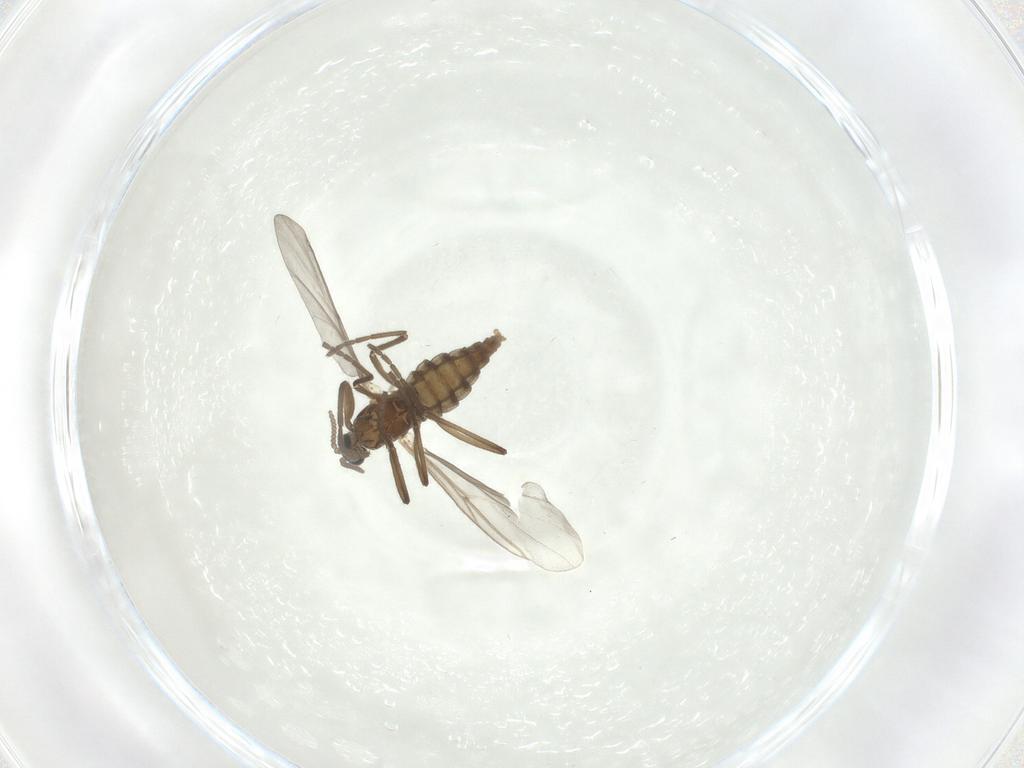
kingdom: Animalia
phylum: Arthropoda
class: Insecta
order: Diptera
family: Cecidomyiidae
